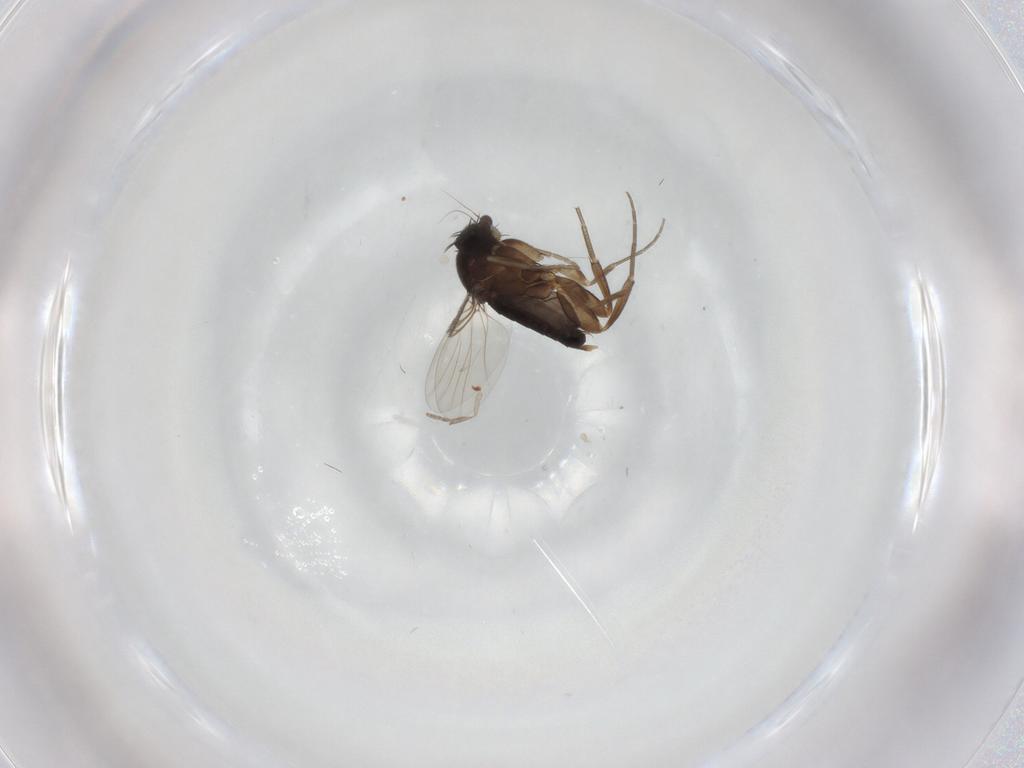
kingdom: Animalia
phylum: Arthropoda
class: Insecta
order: Diptera
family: Phoridae
